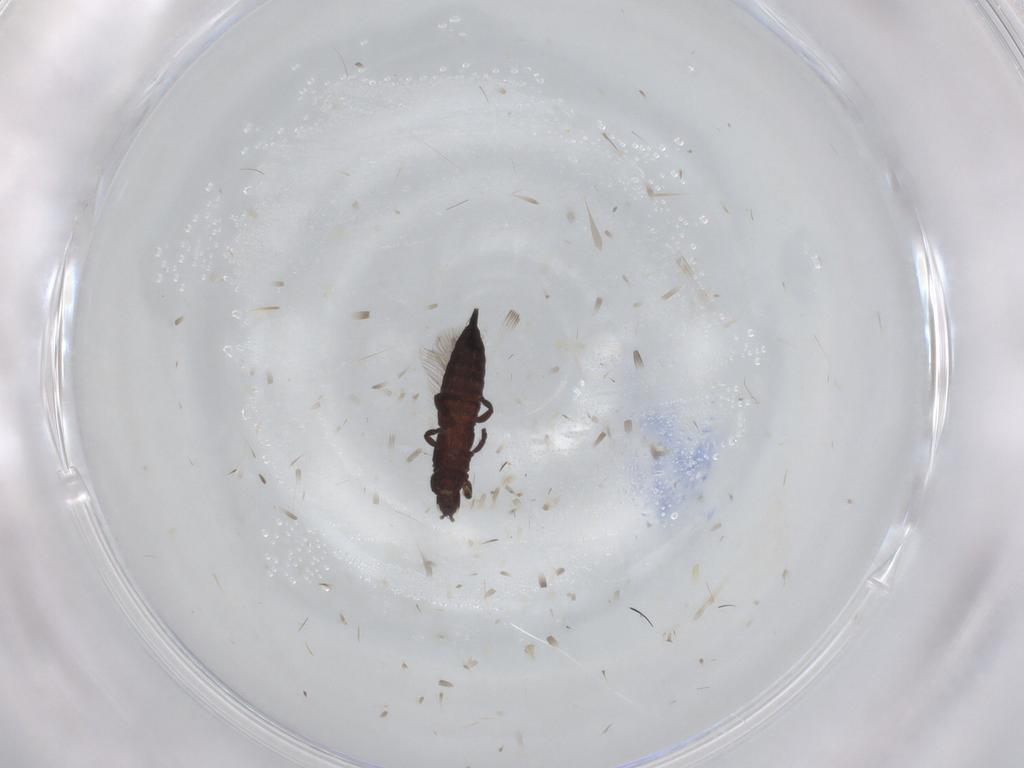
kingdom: Animalia
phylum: Arthropoda
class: Insecta
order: Thysanoptera
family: Phlaeothripidae
